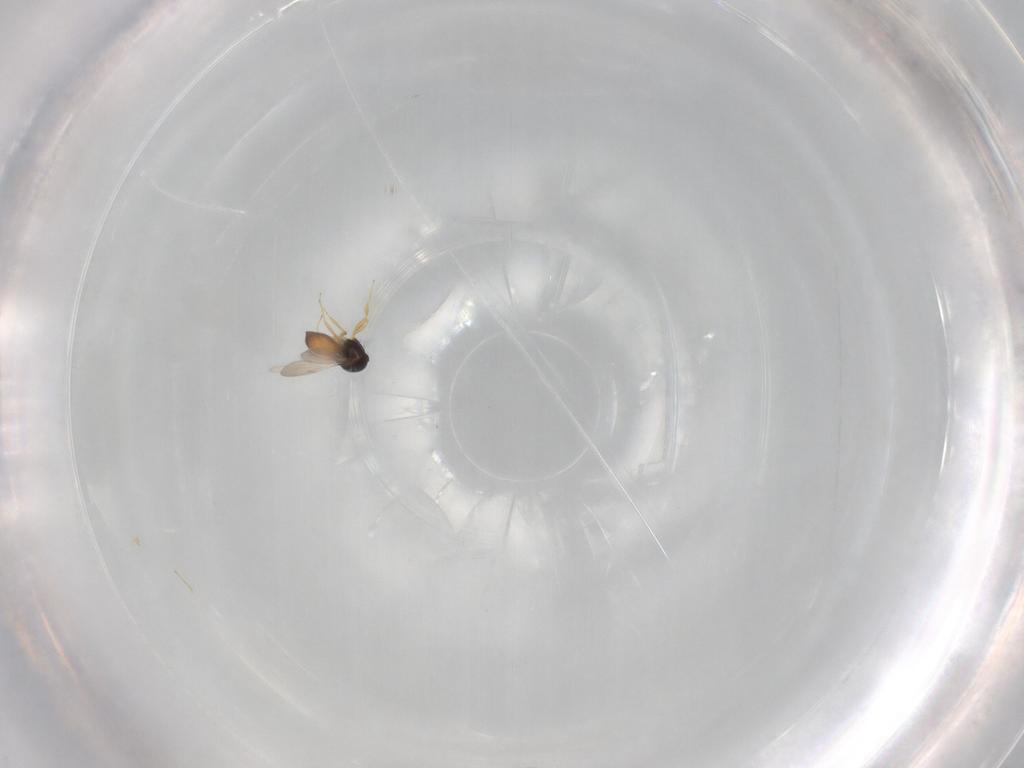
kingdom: Animalia
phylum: Arthropoda
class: Insecta
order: Hymenoptera
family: Scelionidae
